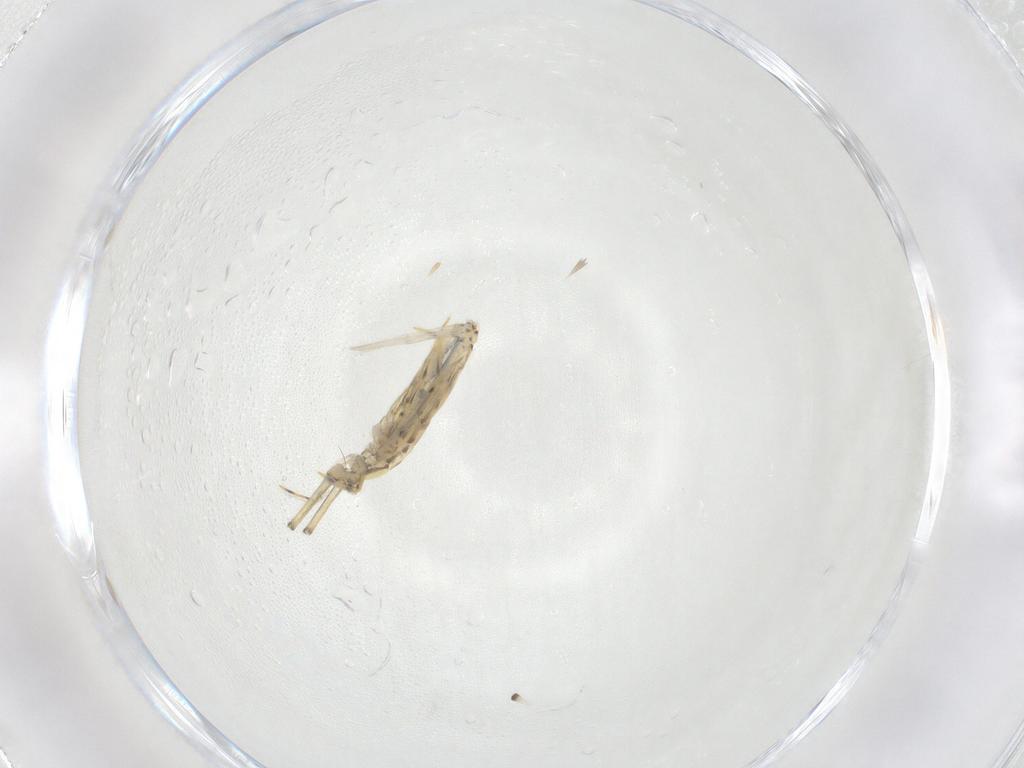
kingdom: Animalia
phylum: Arthropoda
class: Collembola
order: Entomobryomorpha
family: Paronellidae
